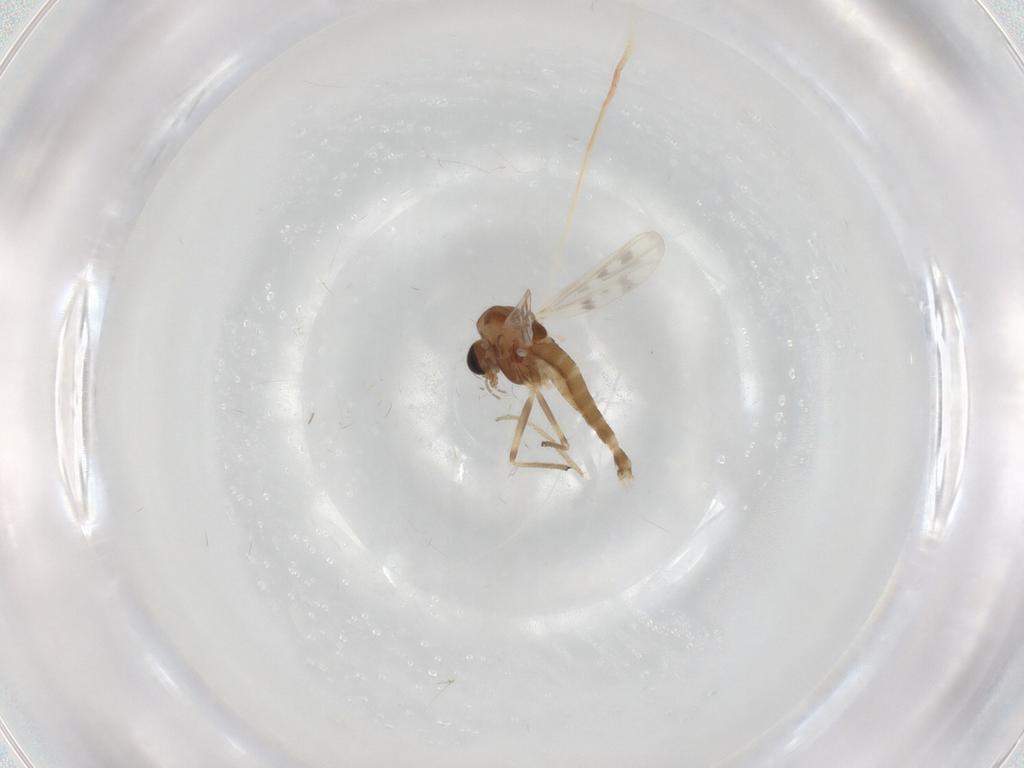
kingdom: Animalia
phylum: Arthropoda
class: Insecta
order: Diptera
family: Chironomidae
